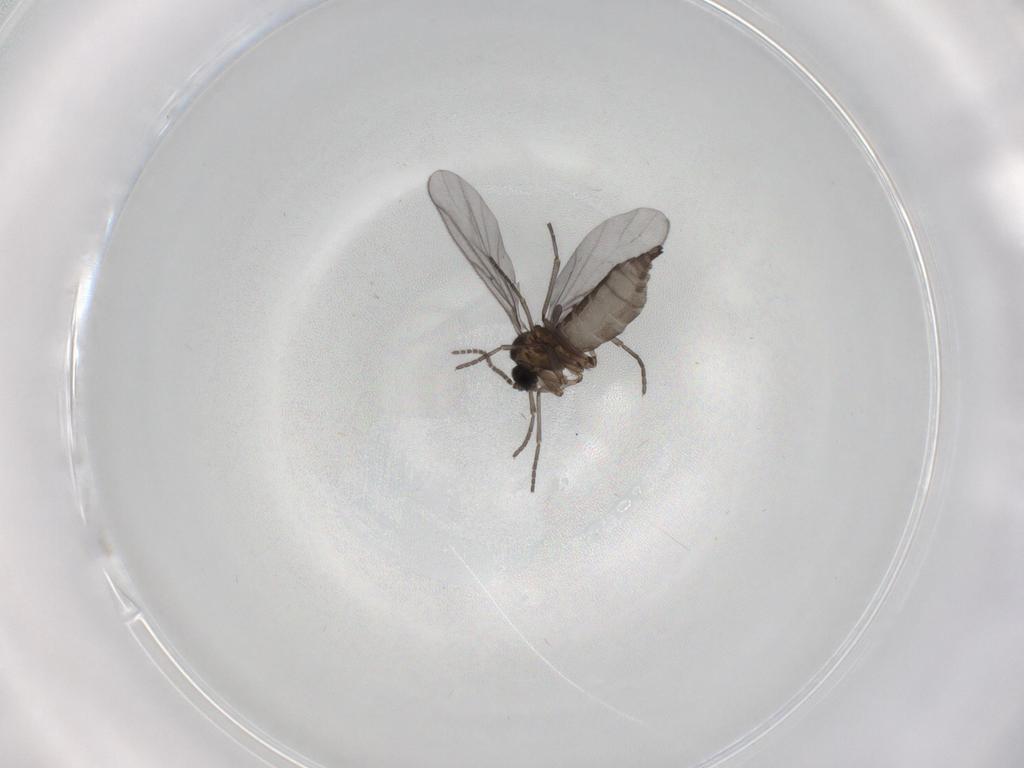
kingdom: Animalia
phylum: Arthropoda
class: Insecta
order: Diptera
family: Sciaridae
